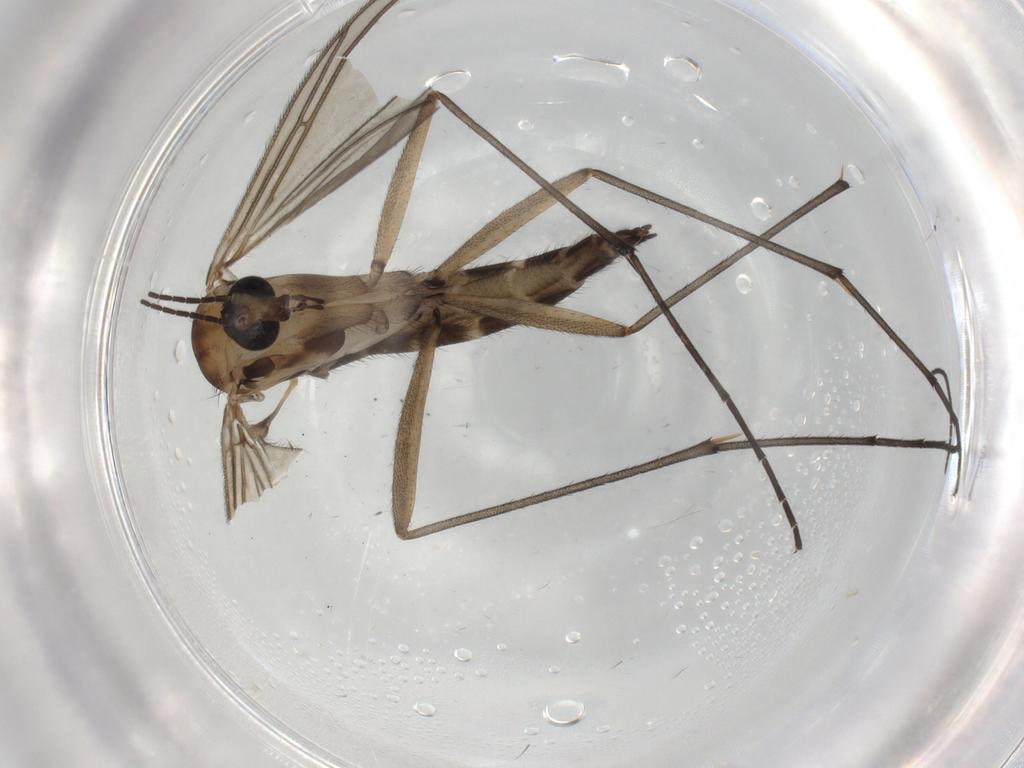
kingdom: Animalia
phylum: Arthropoda
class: Insecta
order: Diptera
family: Sciaridae
